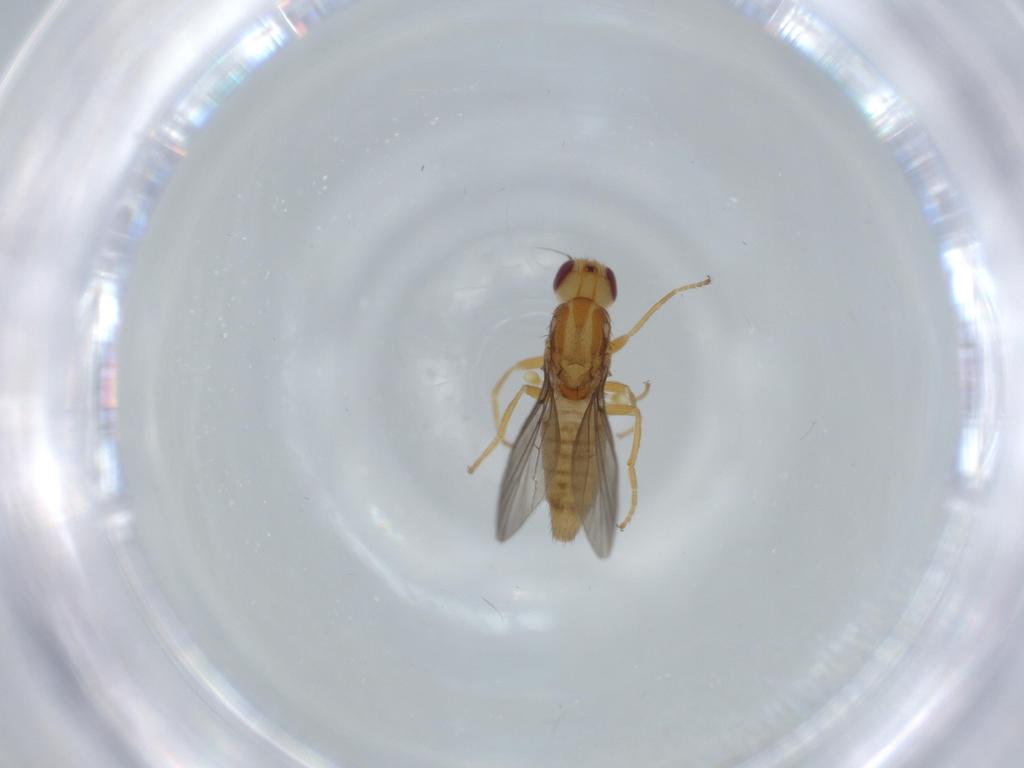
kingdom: Animalia
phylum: Arthropoda
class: Insecta
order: Diptera
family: Chloropidae
